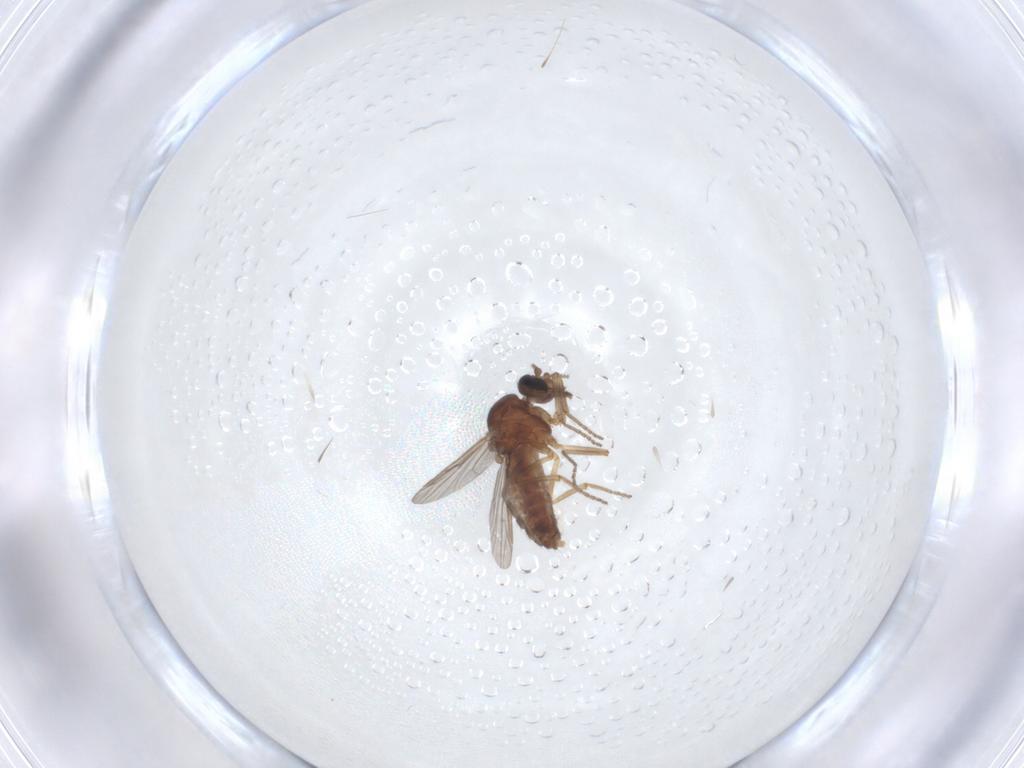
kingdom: Animalia
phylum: Arthropoda
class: Insecta
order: Diptera
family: Ceratopogonidae
